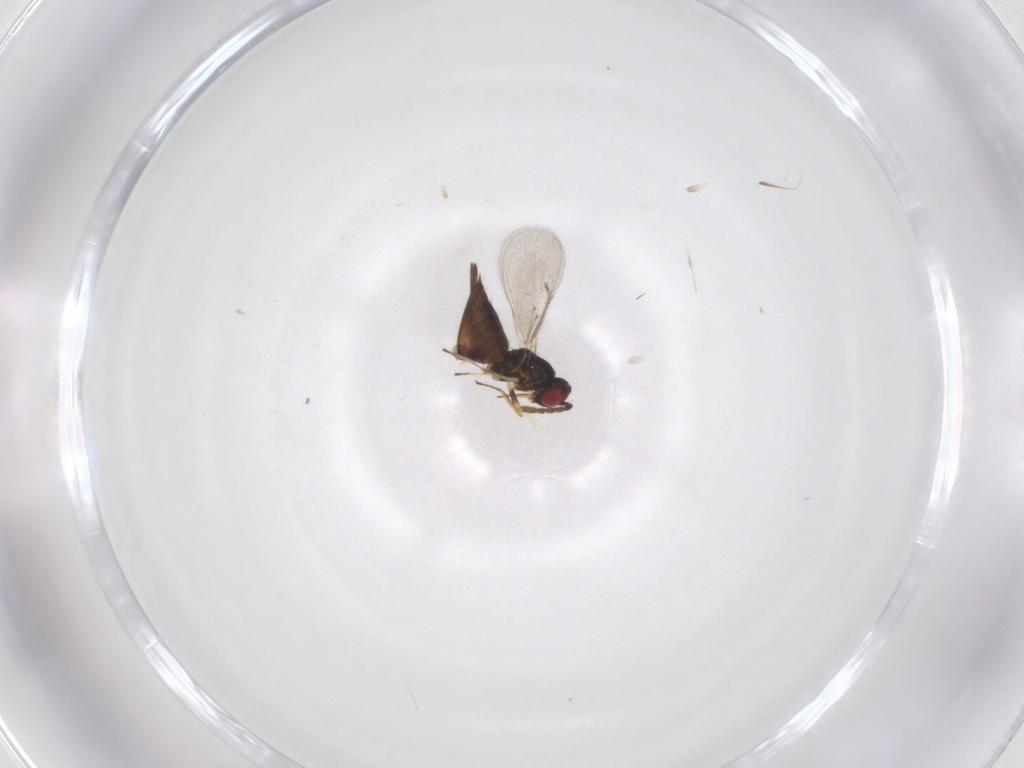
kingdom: Animalia
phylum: Arthropoda
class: Insecta
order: Hymenoptera
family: Eulophidae
